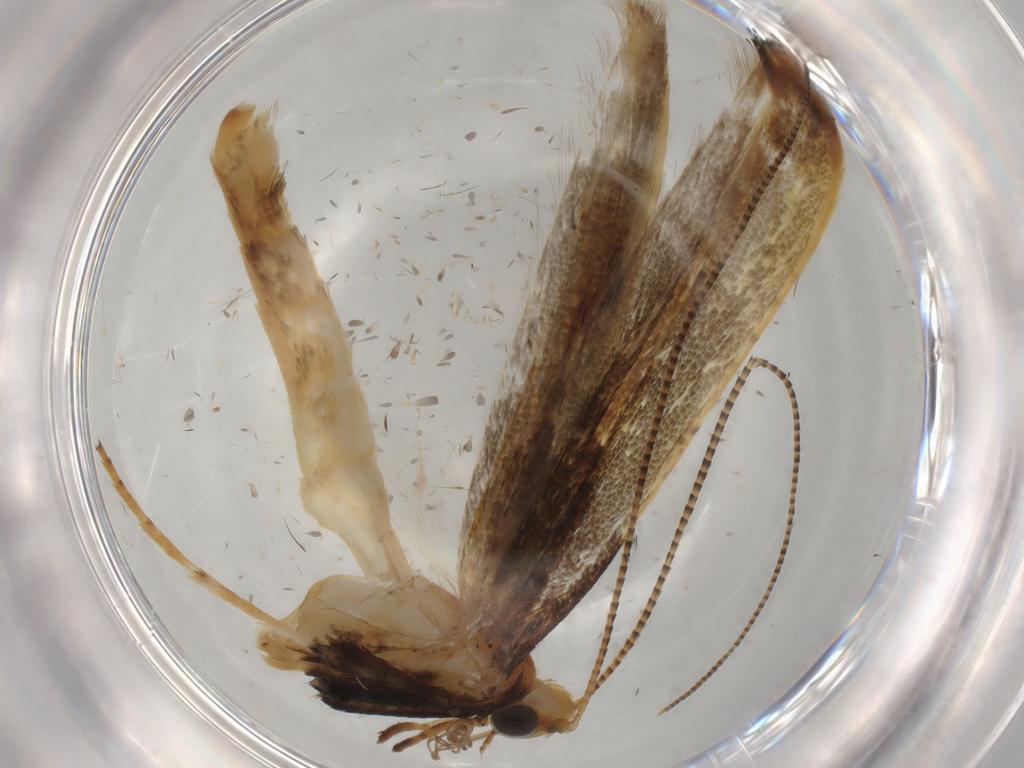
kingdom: Animalia
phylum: Arthropoda
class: Insecta
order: Lepidoptera
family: Gracillariidae
